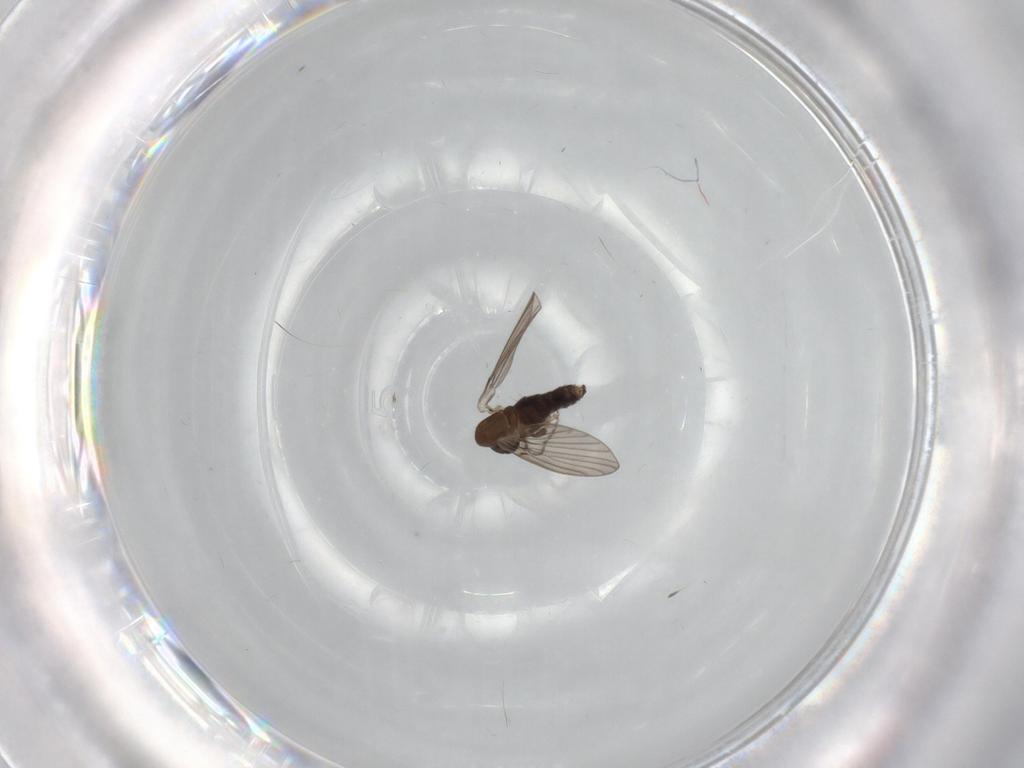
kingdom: Animalia
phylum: Arthropoda
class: Insecta
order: Diptera
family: Psychodidae
